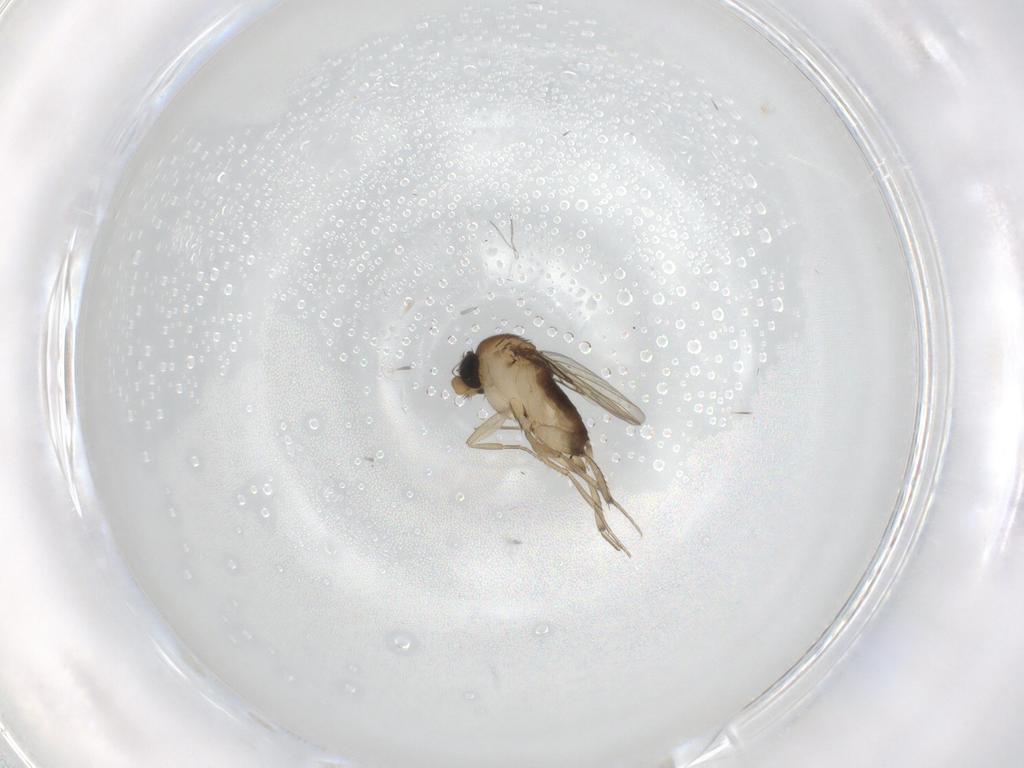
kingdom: Animalia
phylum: Arthropoda
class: Insecta
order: Diptera
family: Phoridae
